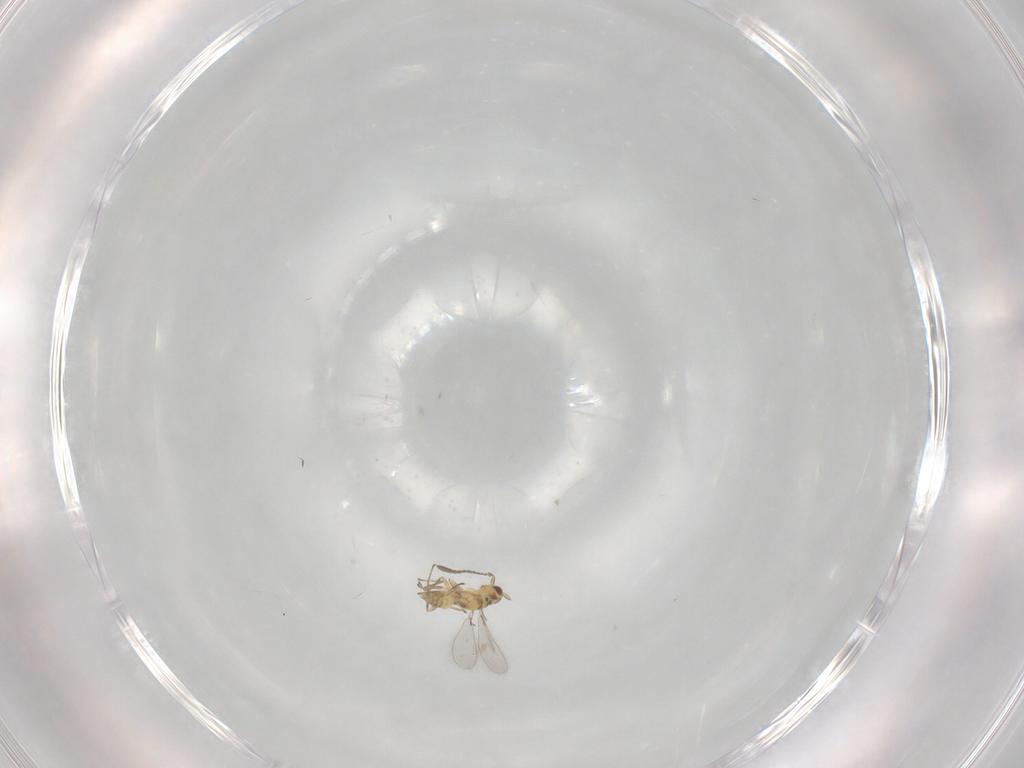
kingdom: Animalia
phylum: Arthropoda
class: Insecta
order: Hymenoptera
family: Mymaridae
